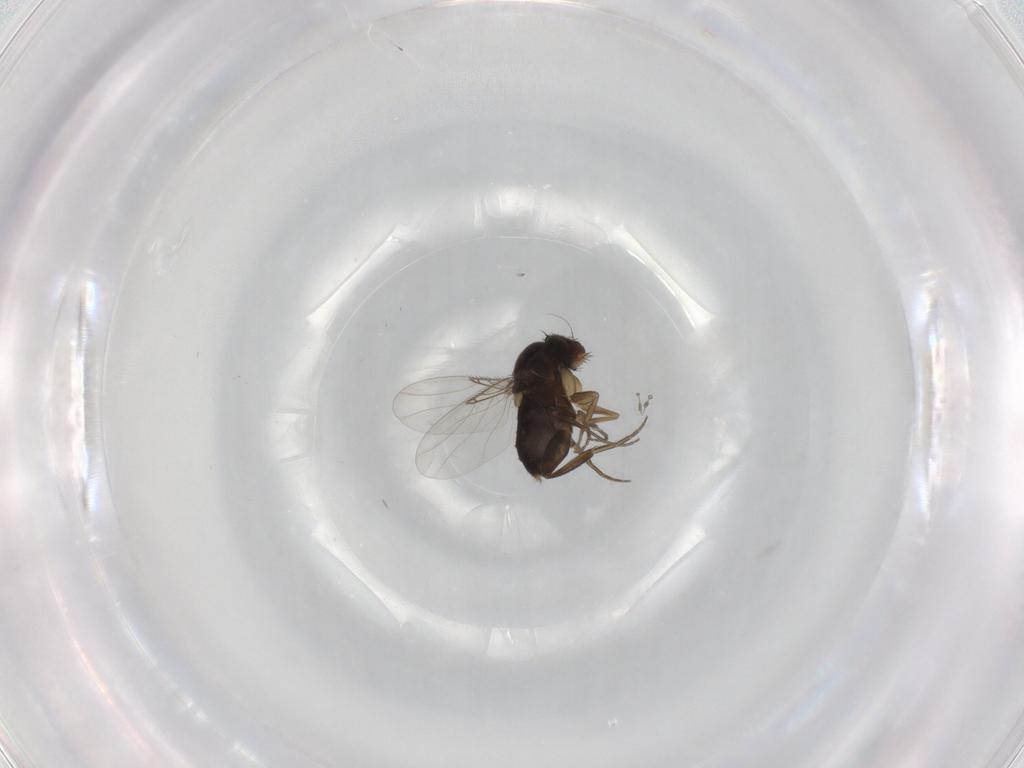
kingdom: Animalia
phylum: Arthropoda
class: Insecta
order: Diptera
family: Phoridae
